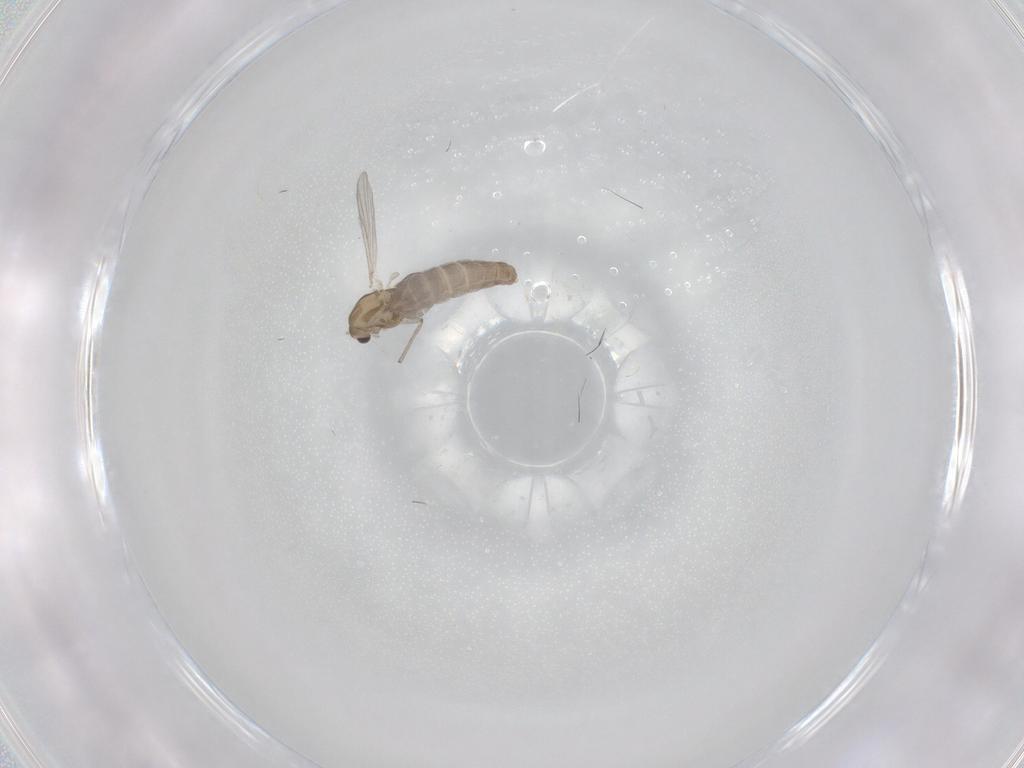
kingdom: Animalia
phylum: Arthropoda
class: Insecta
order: Diptera
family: Chironomidae
